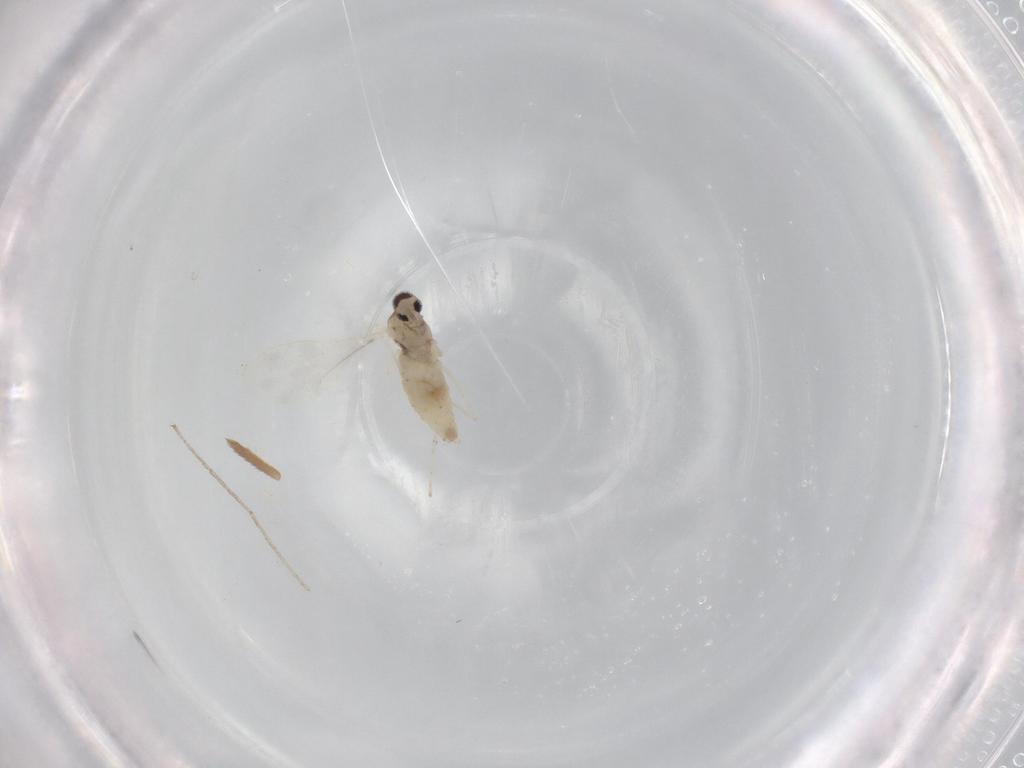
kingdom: Animalia
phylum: Arthropoda
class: Insecta
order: Diptera
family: Cecidomyiidae
